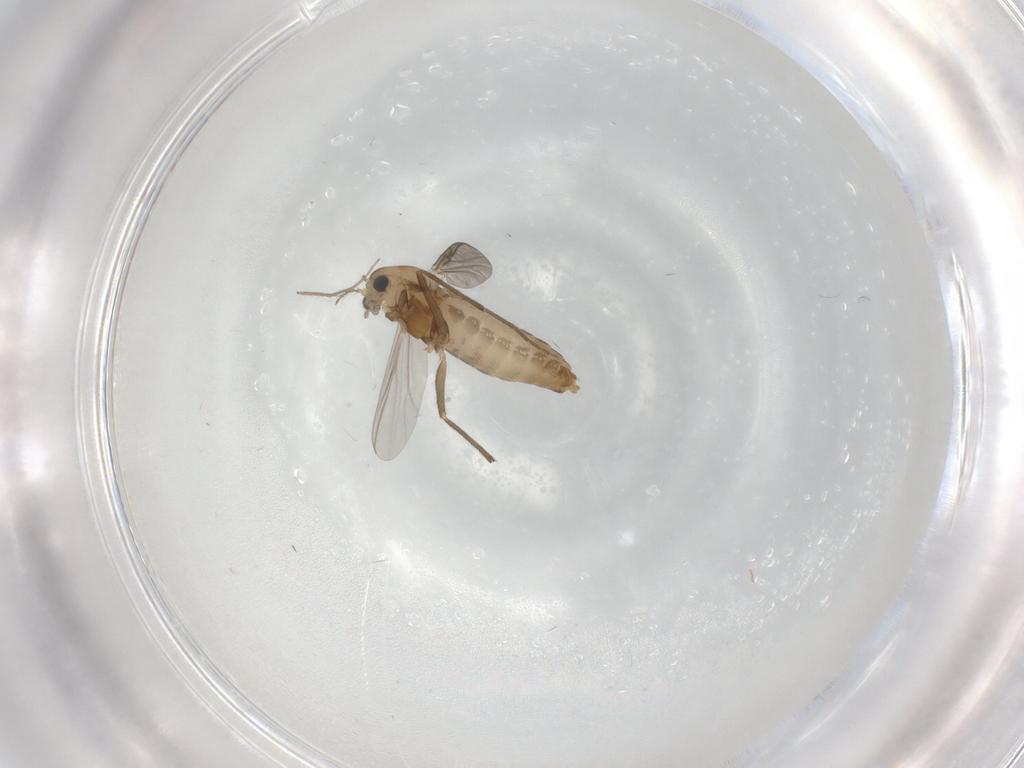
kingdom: Animalia
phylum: Arthropoda
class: Insecta
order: Diptera
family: Chironomidae
